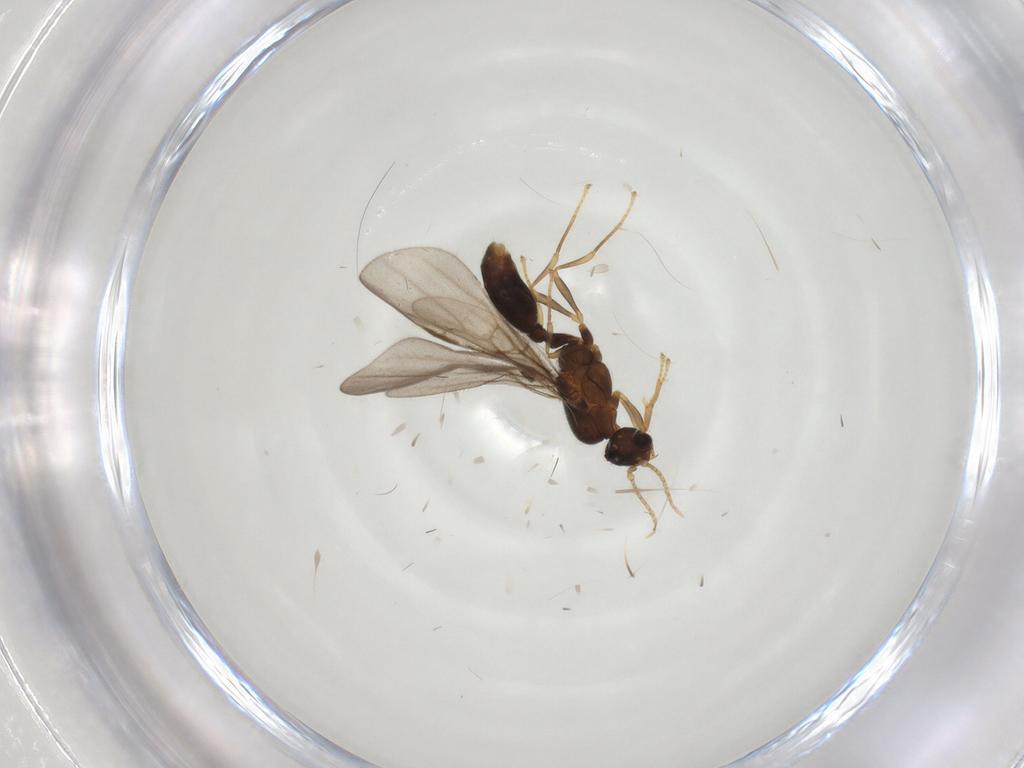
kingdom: Animalia
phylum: Arthropoda
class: Insecta
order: Hymenoptera
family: Formicidae
